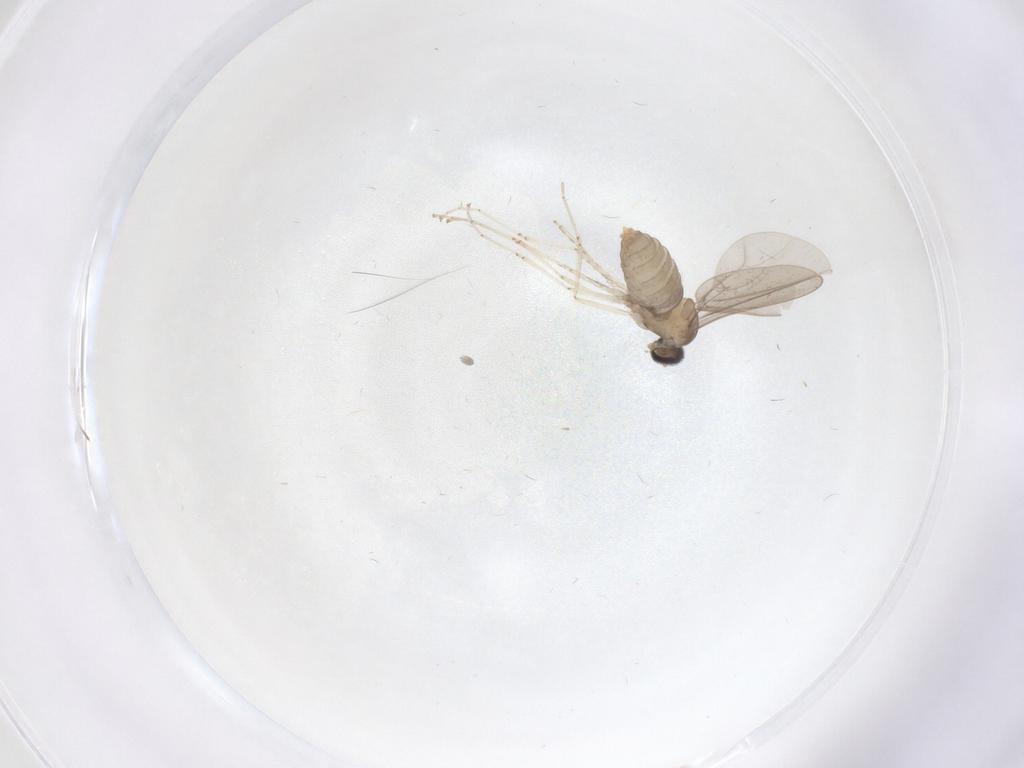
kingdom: Animalia
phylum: Arthropoda
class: Insecta
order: Diptera
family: Cecidomyiidae
